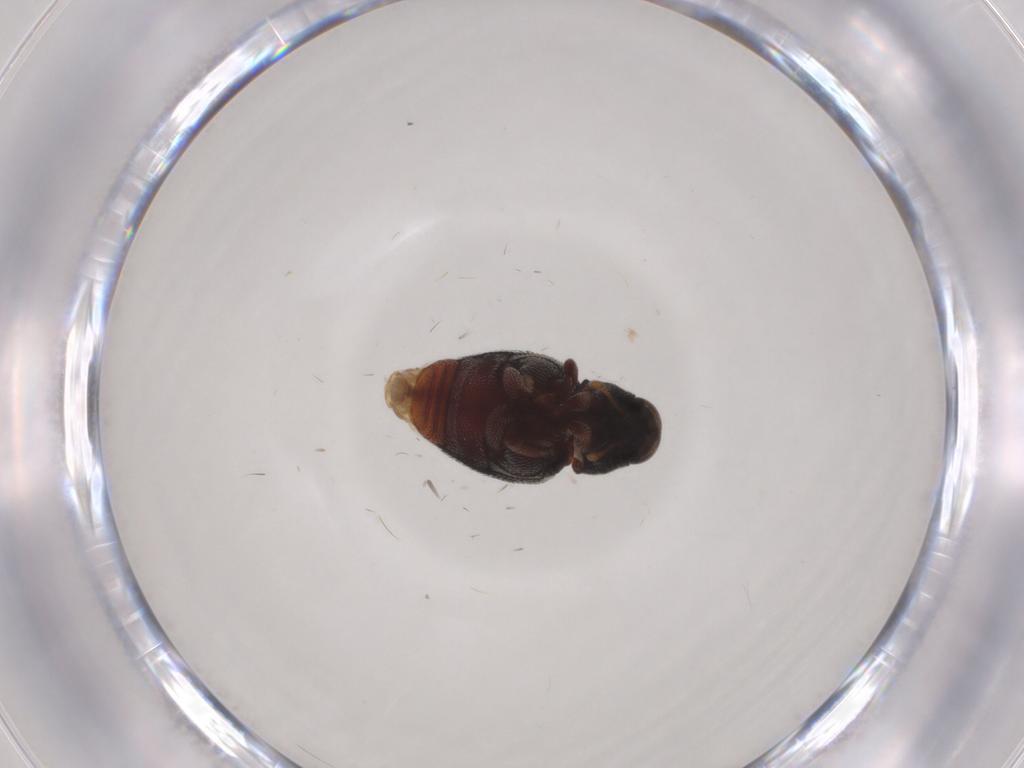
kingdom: Animalia
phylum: Arthropoda
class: Insecta
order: Coleoptera
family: Curculionidae
